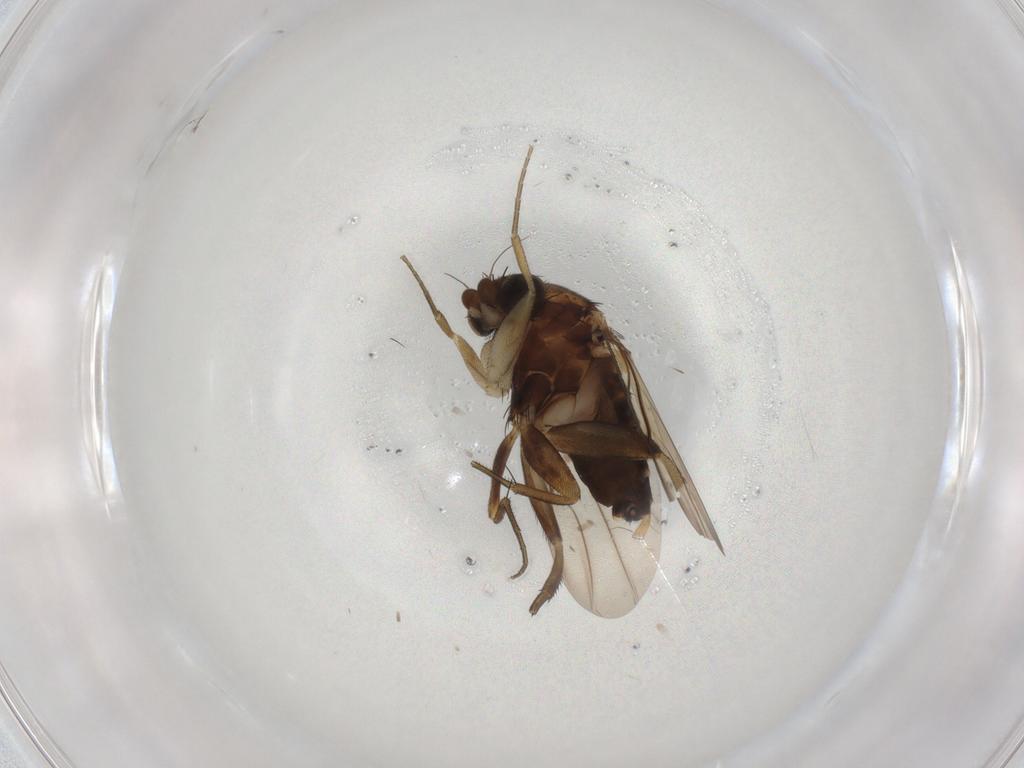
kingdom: Animalia
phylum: Arthropoda
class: Insecta
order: Diptera
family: Phoridae
